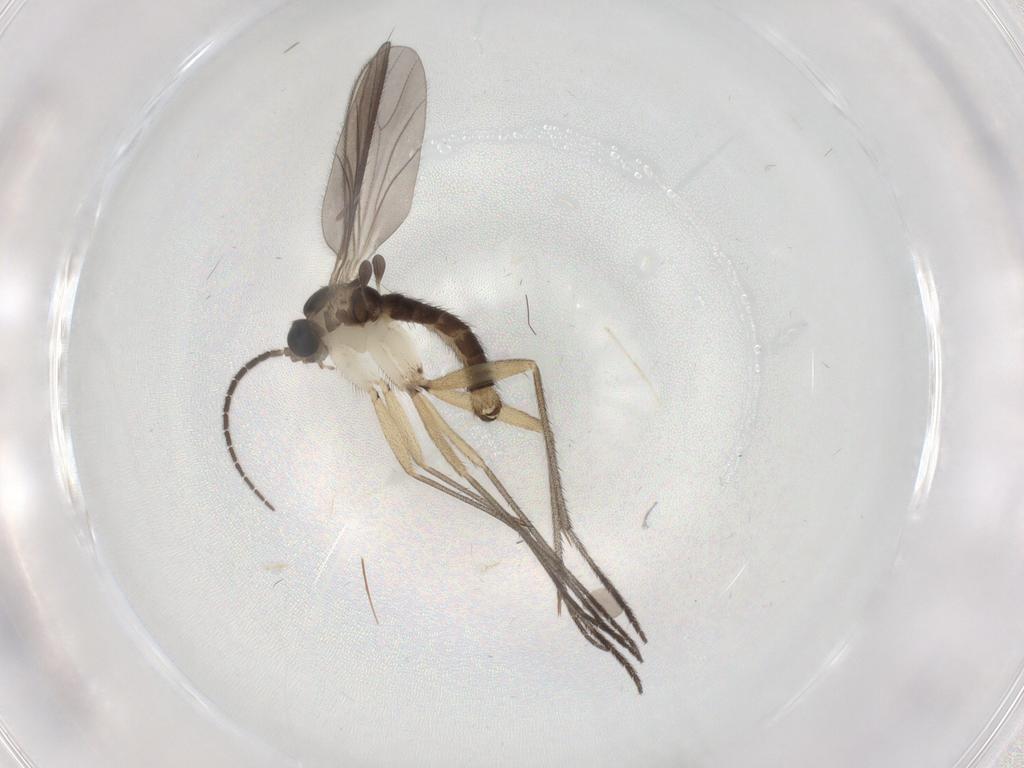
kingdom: Animalia
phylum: Arthropoda
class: Insecta
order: Diptera
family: Sciaridae
